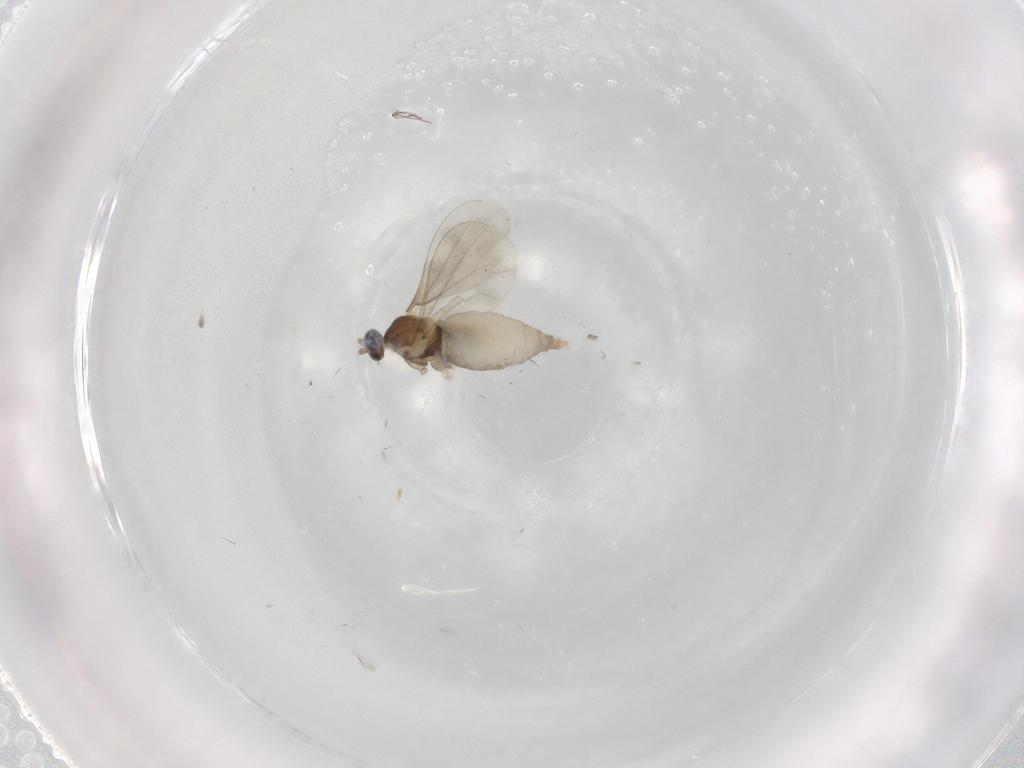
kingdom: Animalia
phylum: Arthropoda
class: Insecta
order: Diptera
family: Cecidomyiidae
